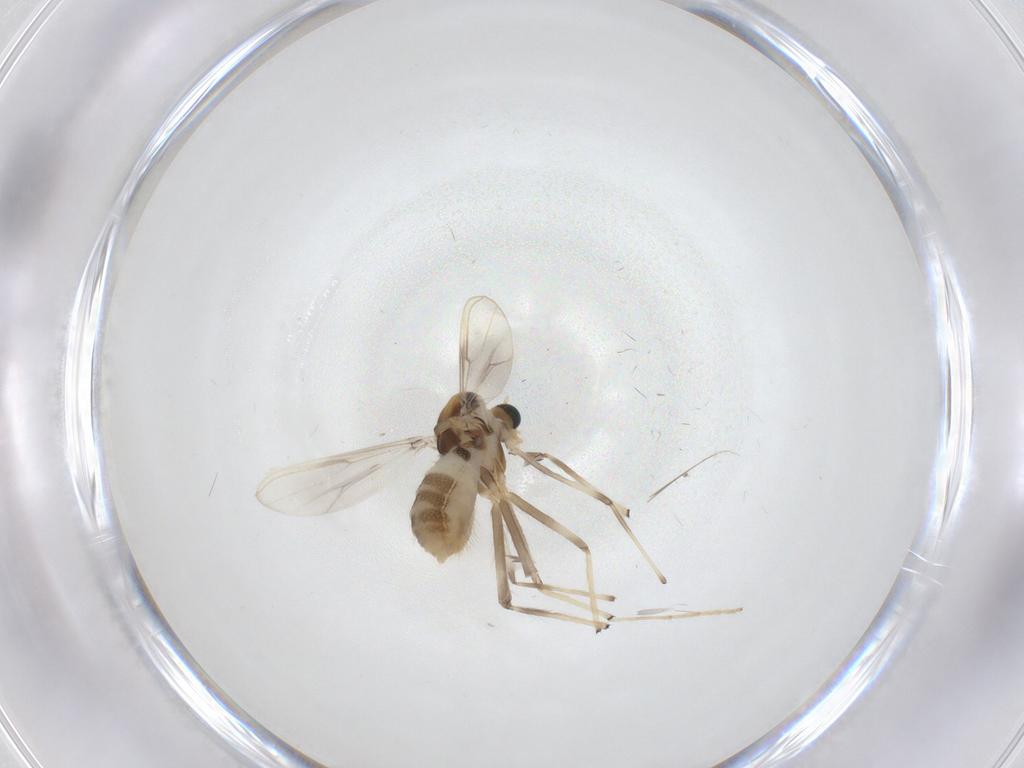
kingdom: Animalia
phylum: Arthropoda
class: Insecta
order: Diptera
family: Chironomidae
